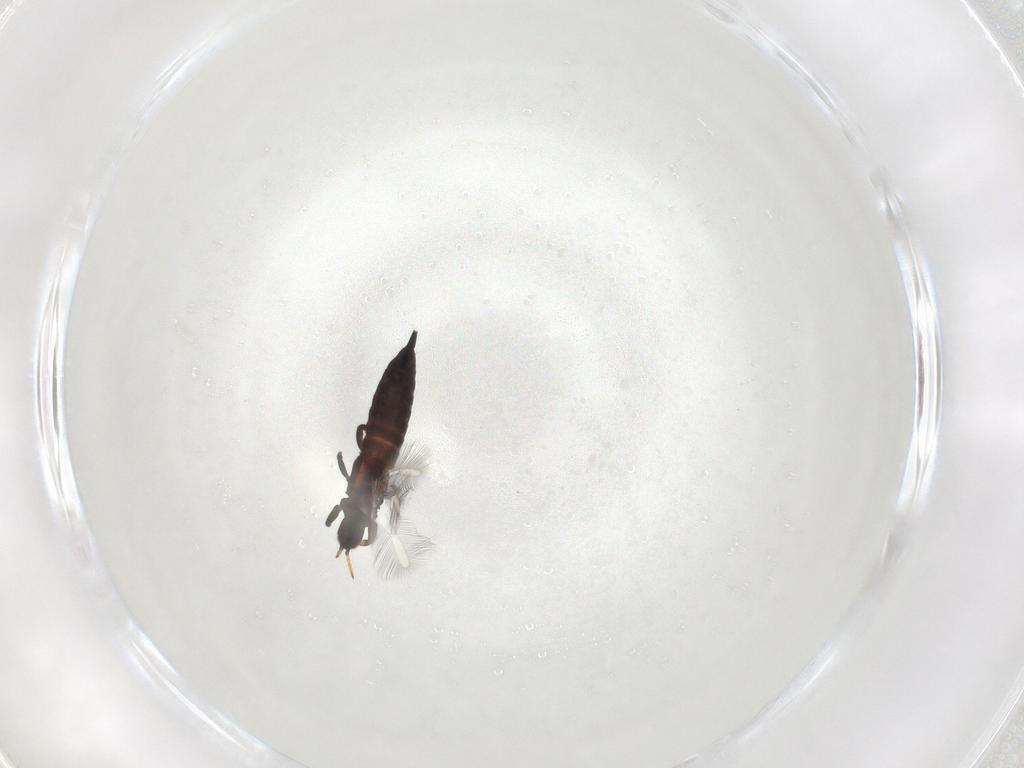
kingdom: Animalia
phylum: Arthropoda
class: Insecta
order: Thysanoptera
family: Phlaeothripidae
